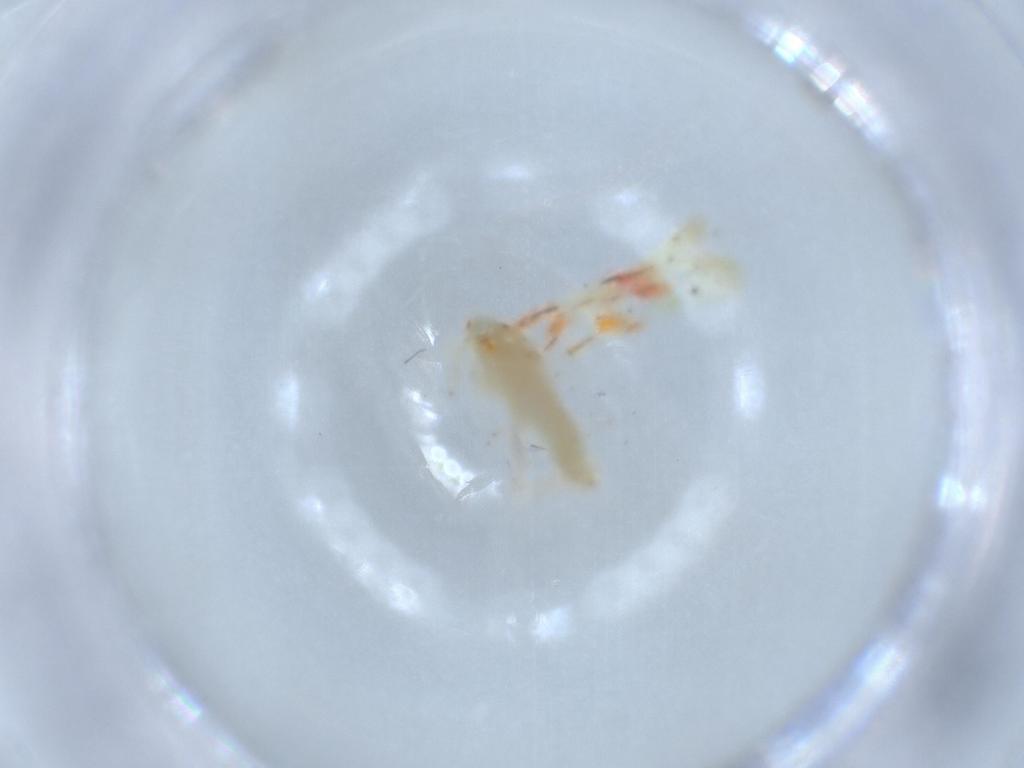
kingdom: Animalia
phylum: Arthropoda
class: Insecta
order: Hemiptera
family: Cicadellidae
